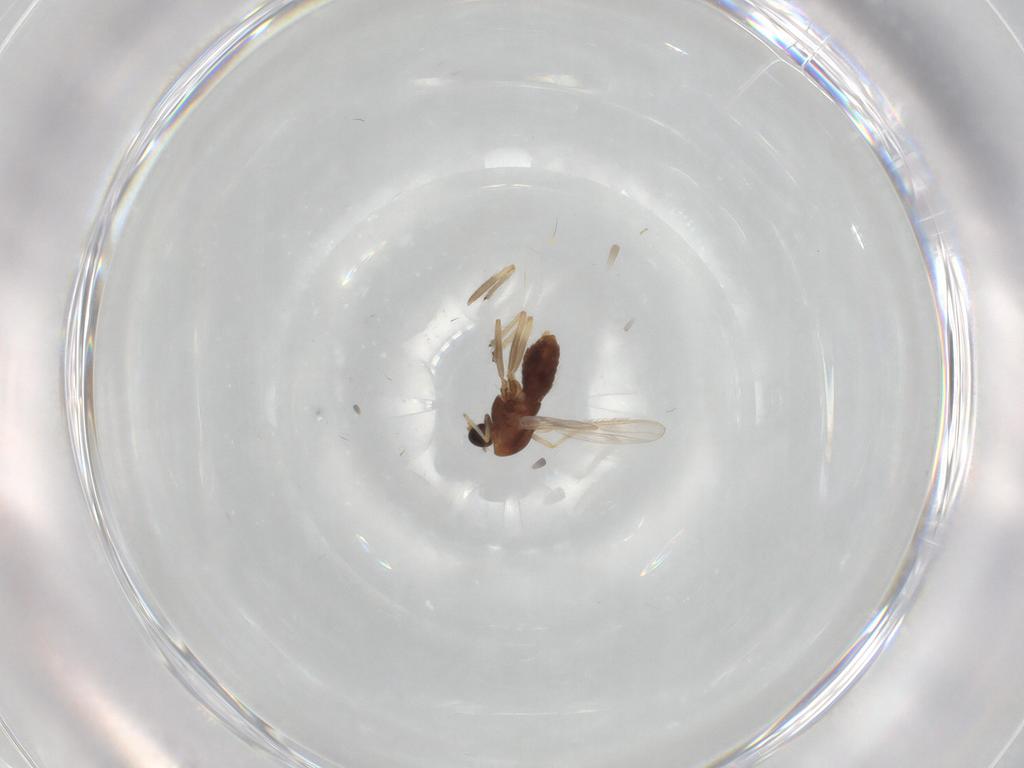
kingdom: Animalia
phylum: Arthropoda
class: Insecta
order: Diptera
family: Chironomidae
